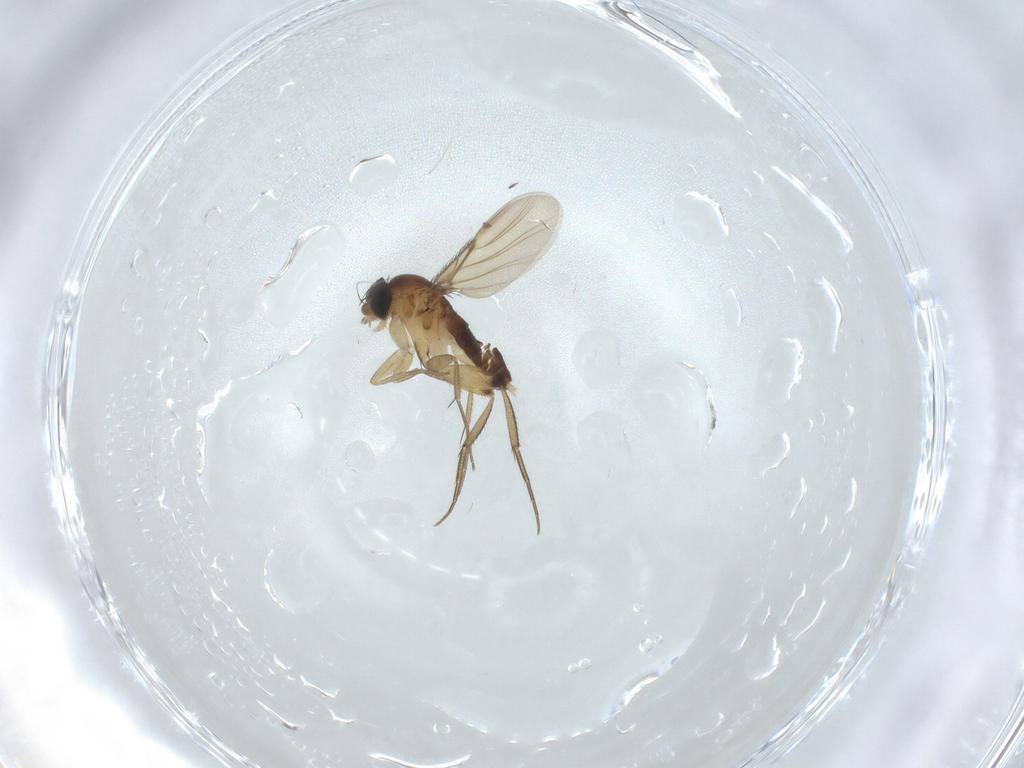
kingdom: Animalia
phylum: Arthropoda
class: Insecta
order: Diptera
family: Phoridae
